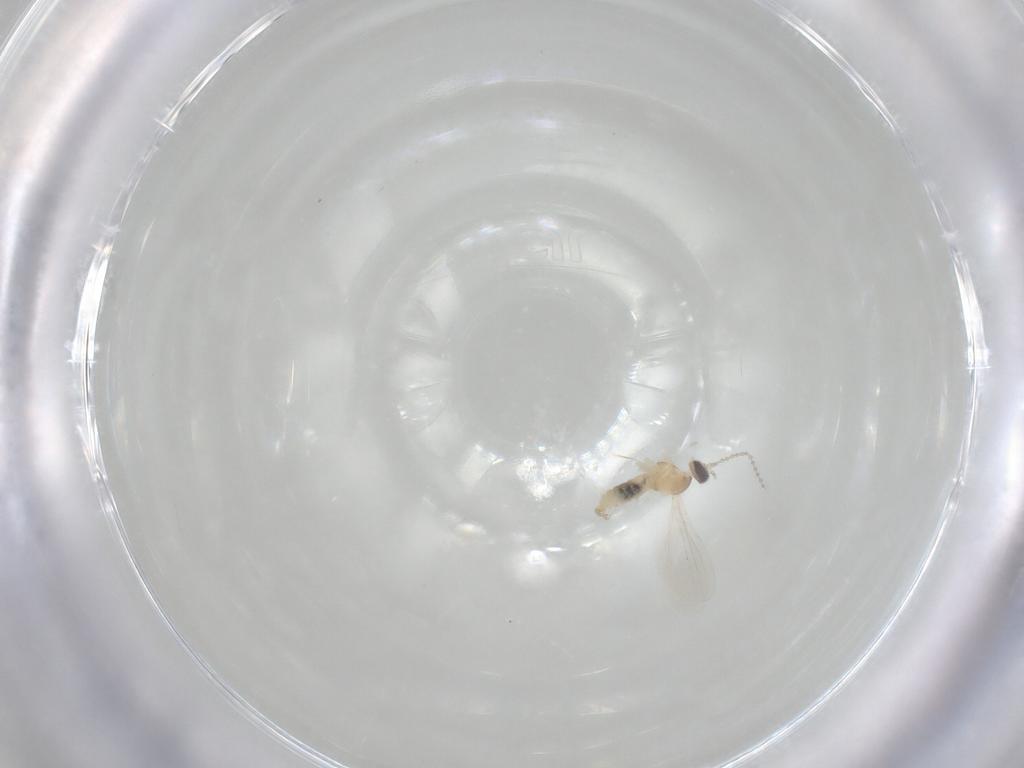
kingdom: Animalia
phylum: Arthropoda
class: Insecta
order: Diptera
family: Cecidomyiidae
